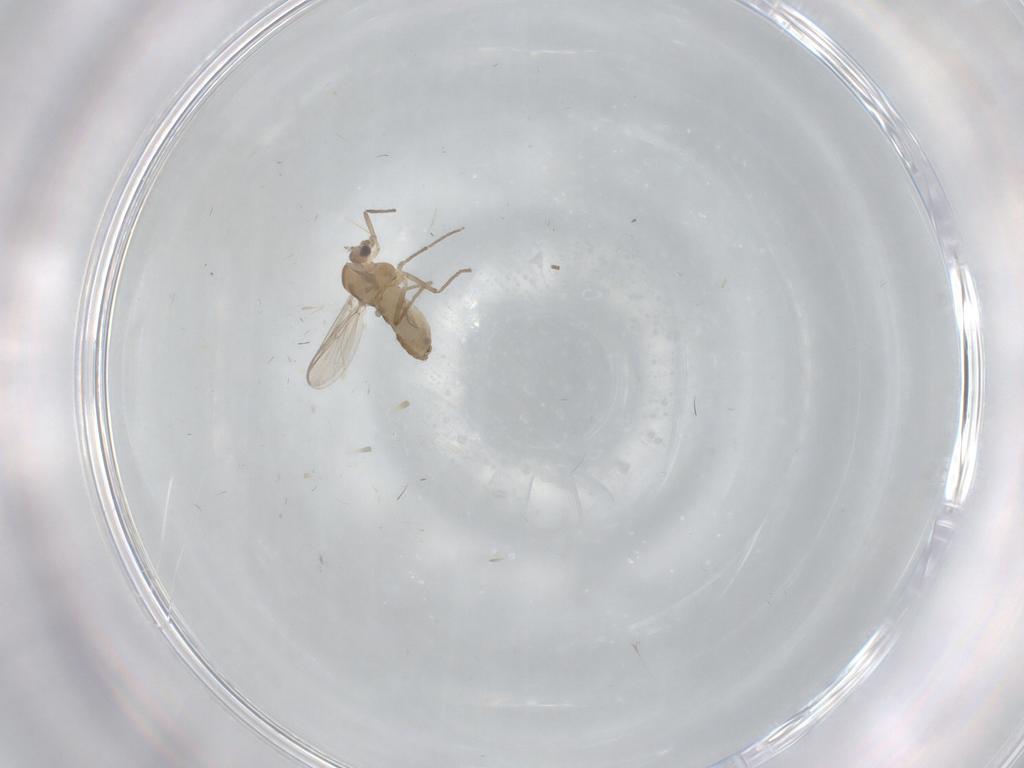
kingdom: Animalia
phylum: Arthropoda
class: Insecta
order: Diptera
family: Chironomidae
